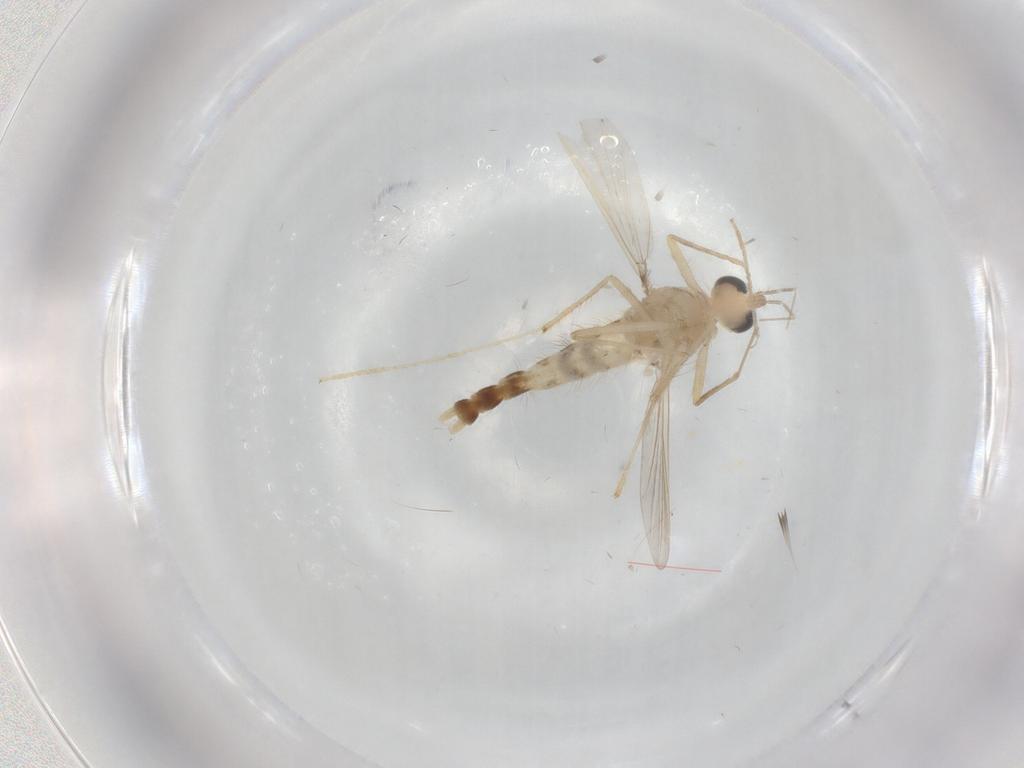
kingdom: Animalia
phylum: Arthropoda
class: Insecta
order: Diptera
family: Chironomidae
